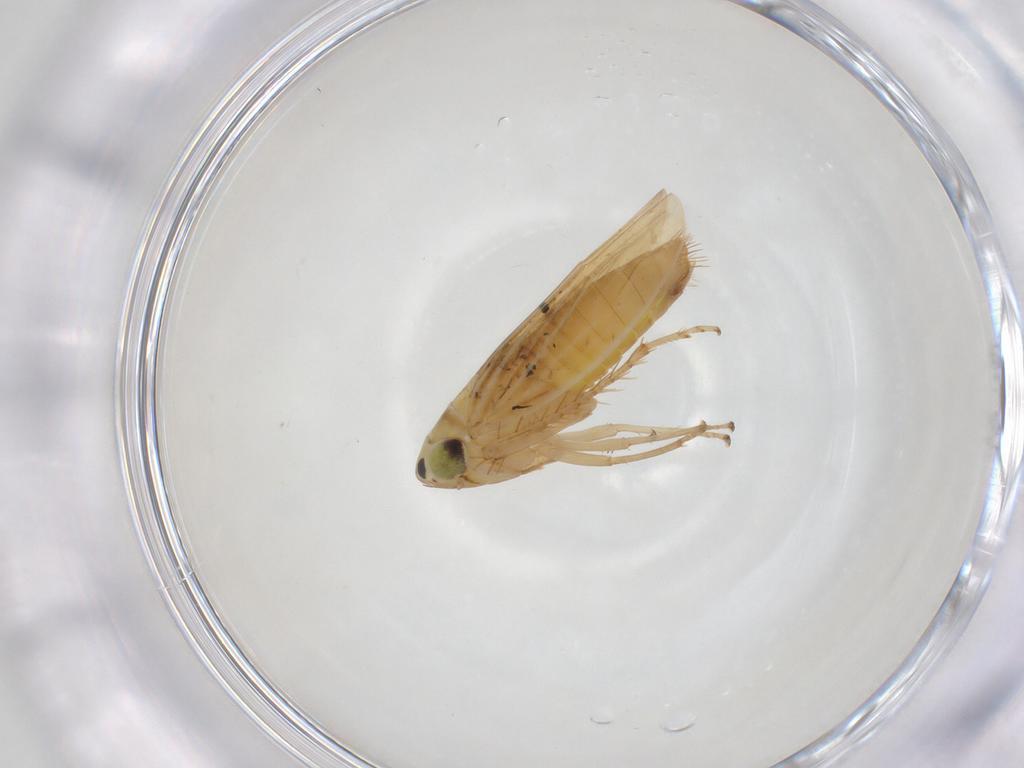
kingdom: Animalia
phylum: Arthropoda
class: Insecta
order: Hemiptera
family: Cicadellidae
